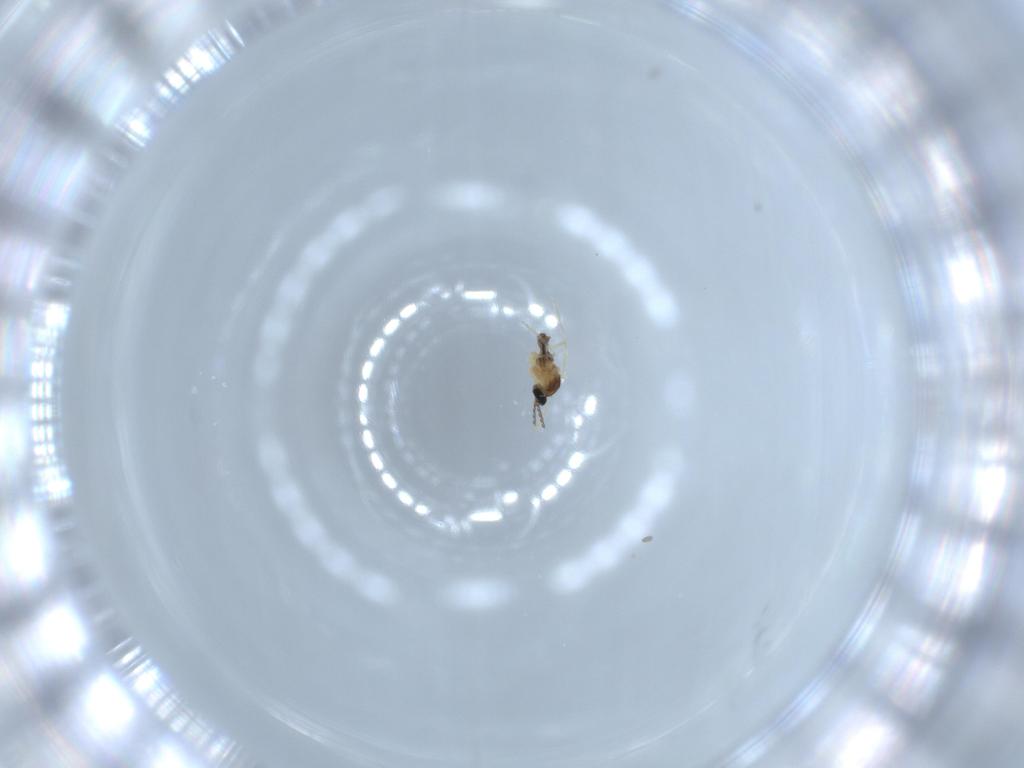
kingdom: Animalia
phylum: Arthropoda
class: Insecta
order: Diptera
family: Cecidomyiidae
